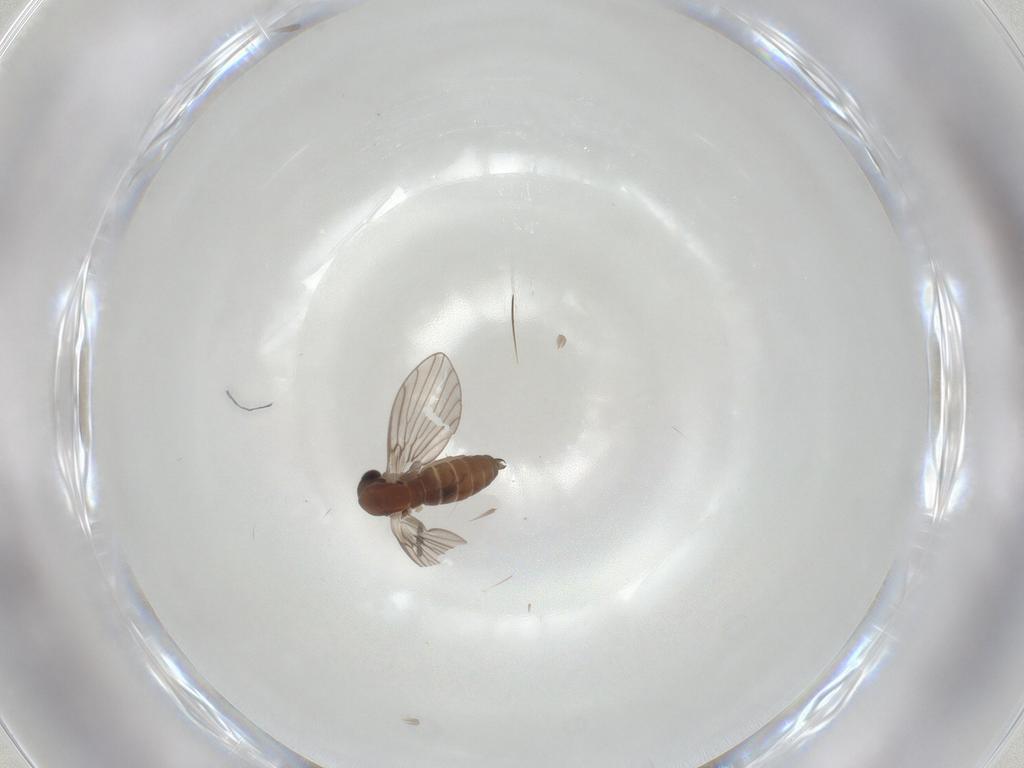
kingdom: Animalia
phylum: Arthropoda
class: Insecta
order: Diptera
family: Psychodidae
